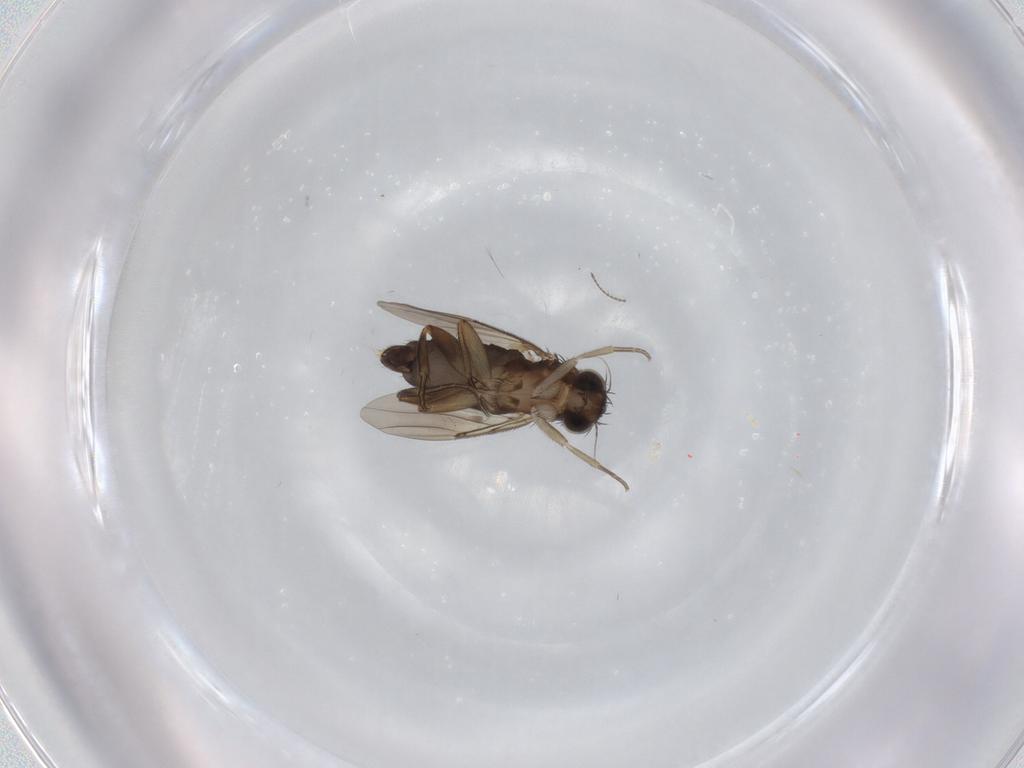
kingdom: Animalia
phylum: Arthropoda
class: Insecta
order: Diptera
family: Phoridae
